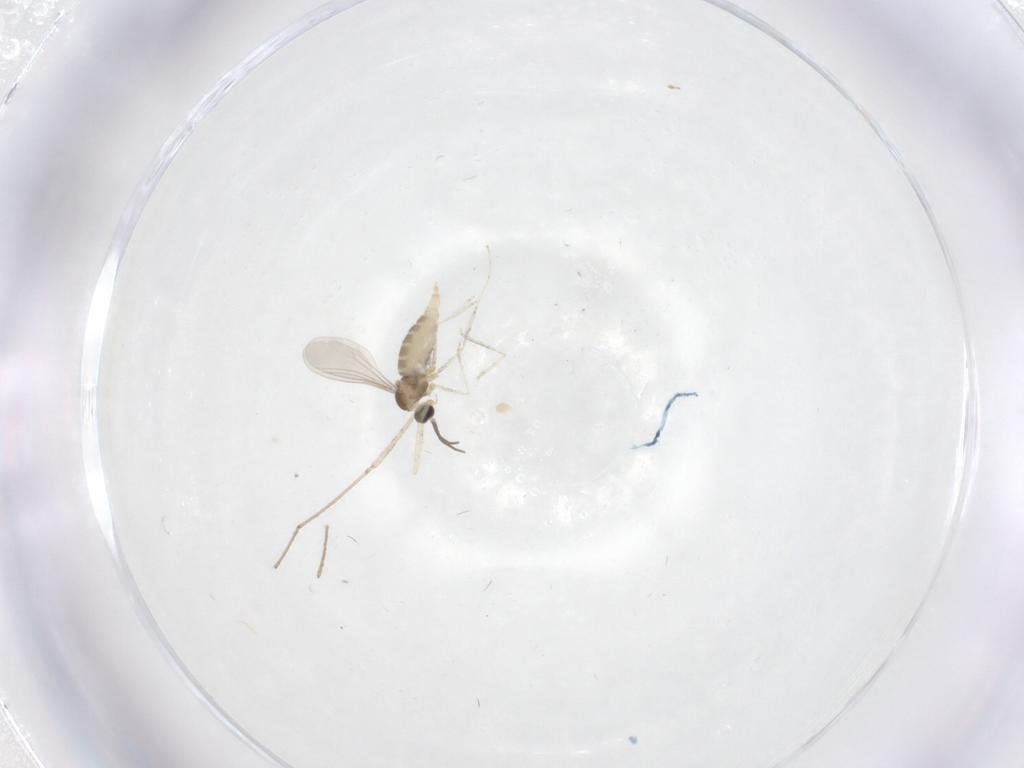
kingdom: Animalia
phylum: Arthropoda
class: Insecta
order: Diptera
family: Cecidomyiidae
